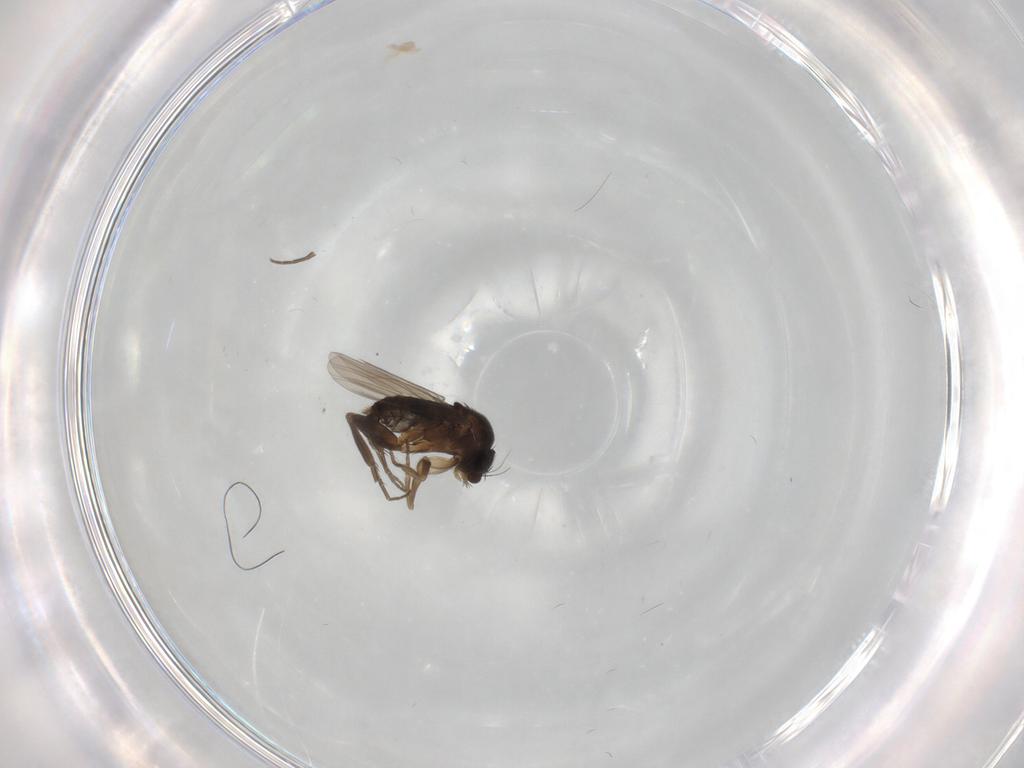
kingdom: Animalia
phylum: Arthropoda
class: Insecta
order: Diptera
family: Phoridae
